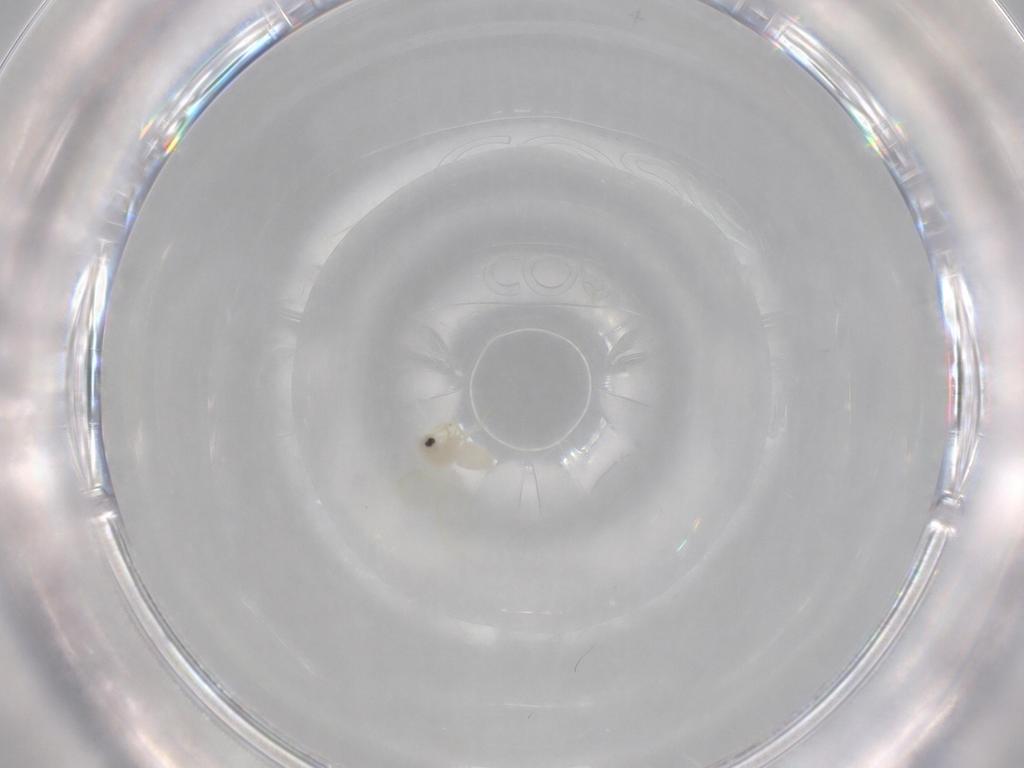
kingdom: Animalia
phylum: Arthropoda
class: Insecta
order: Hemiptera
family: Aleyrodidae
